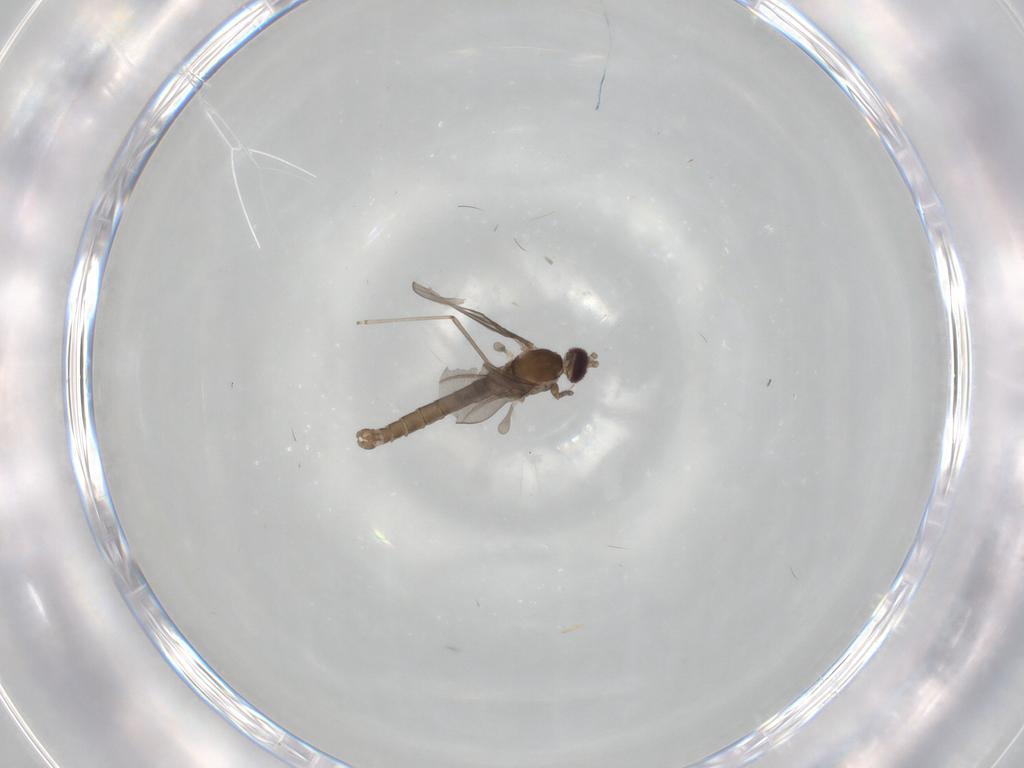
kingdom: Animalia
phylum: Arthropoda
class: Insecta
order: Diptera
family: Cecidomyiidae
